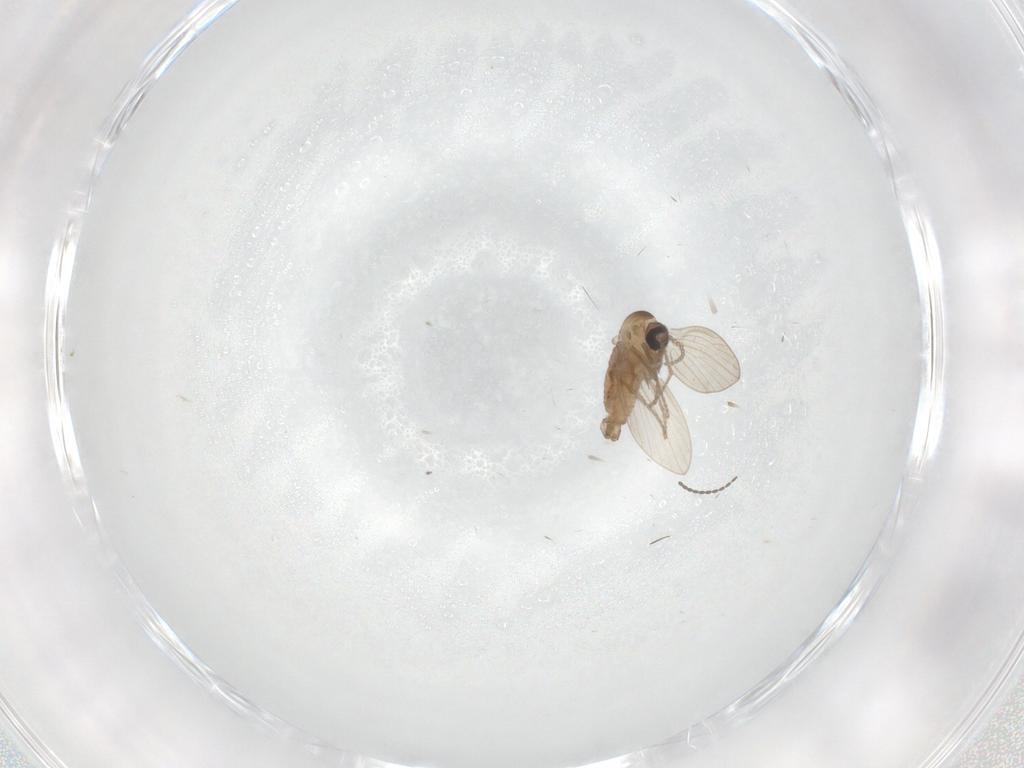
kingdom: Animalia
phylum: Arthropoda
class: Insecta
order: Diptera
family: Psychodidae
